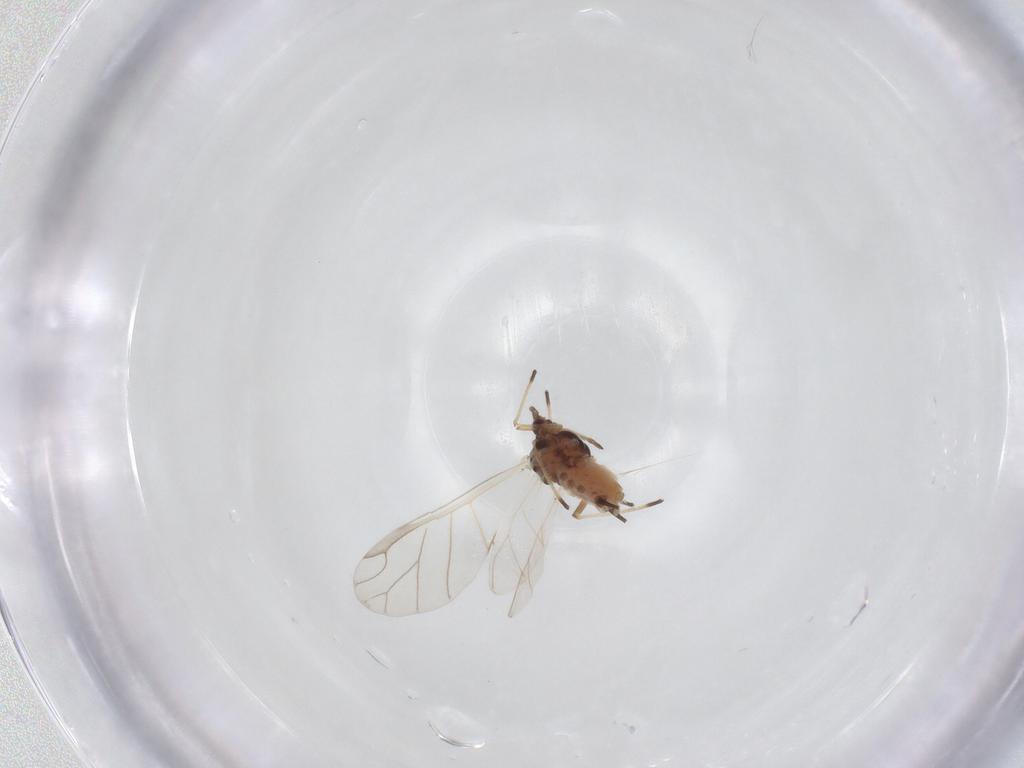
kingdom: Animalia
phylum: Arthropoda
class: Insecta
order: Hemiptera
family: Aphididae
